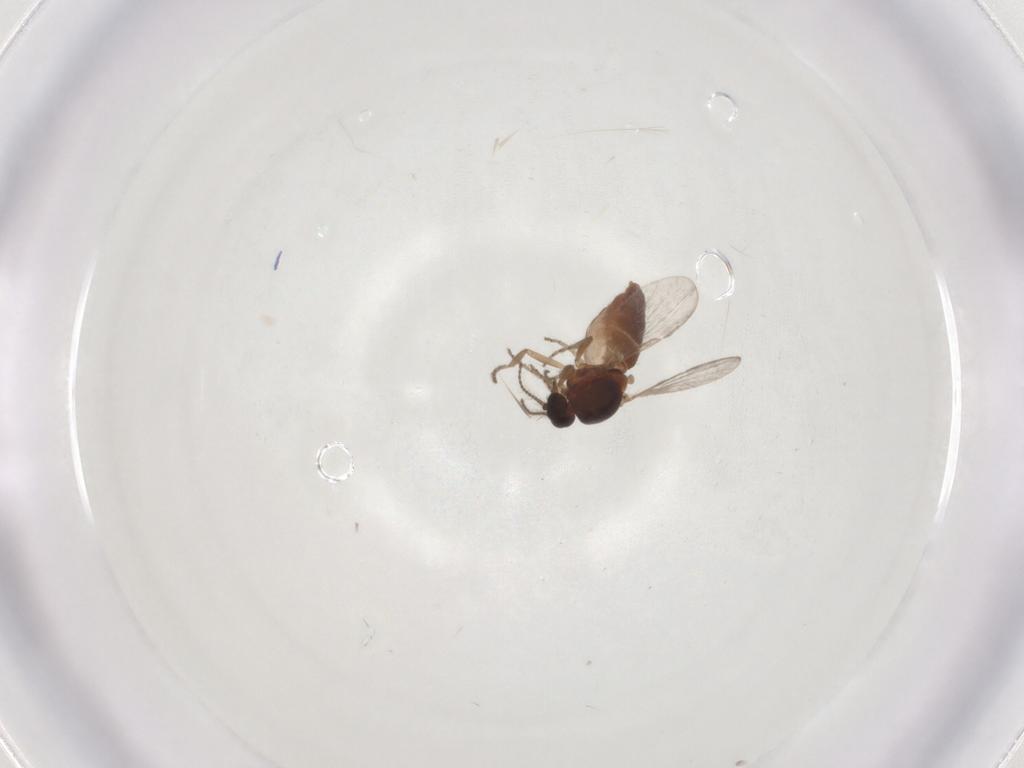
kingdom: Animalia
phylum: Arthropoda
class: Insecta
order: Diptera
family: Ceratopogonidae
